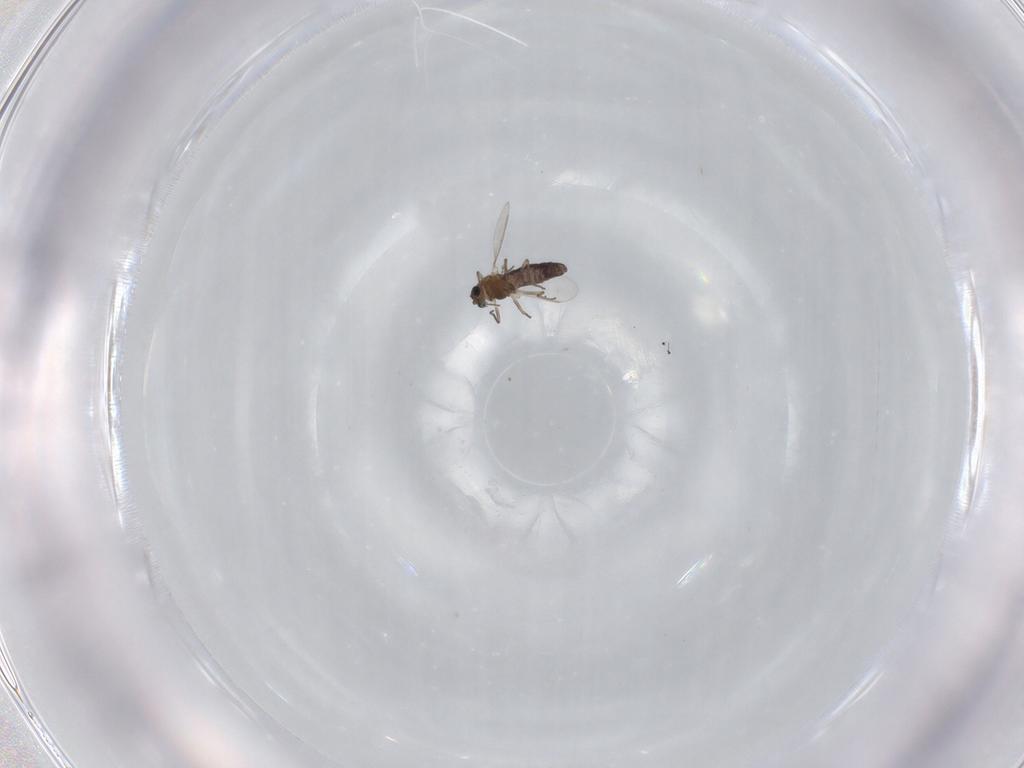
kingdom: Animalia
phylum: Arthropoda
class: Insecta
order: Diptera
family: Chironomidae
